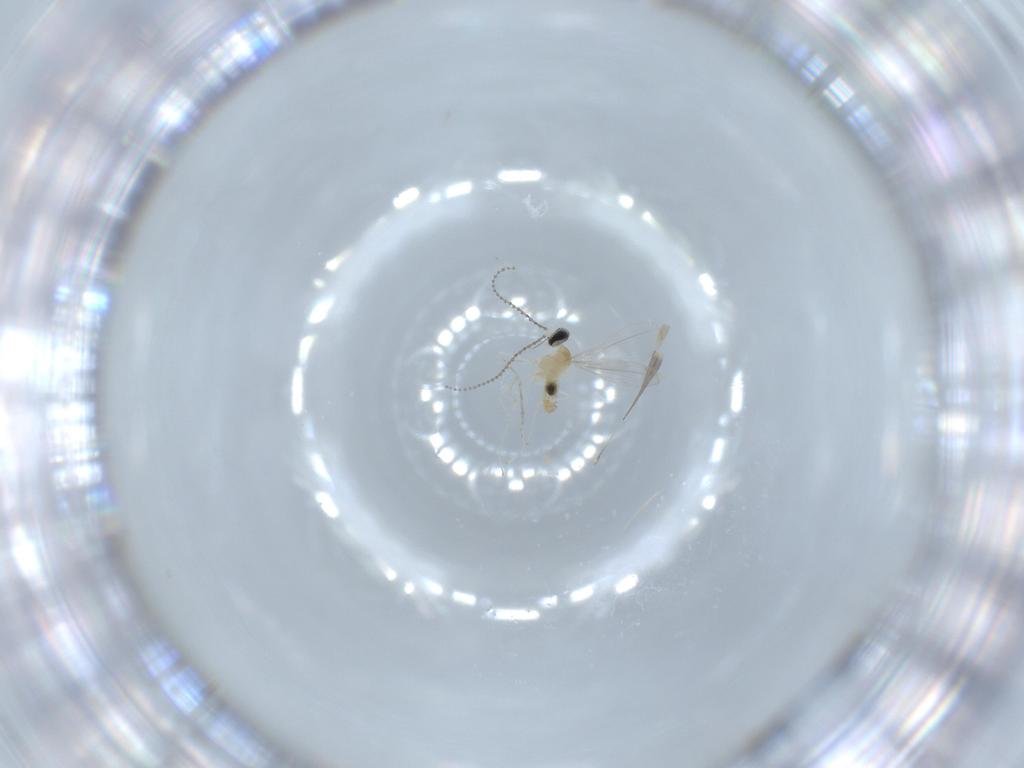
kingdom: Animalia
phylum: Arthropoda
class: Insecta
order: Diptera
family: Cecidomyiidae
